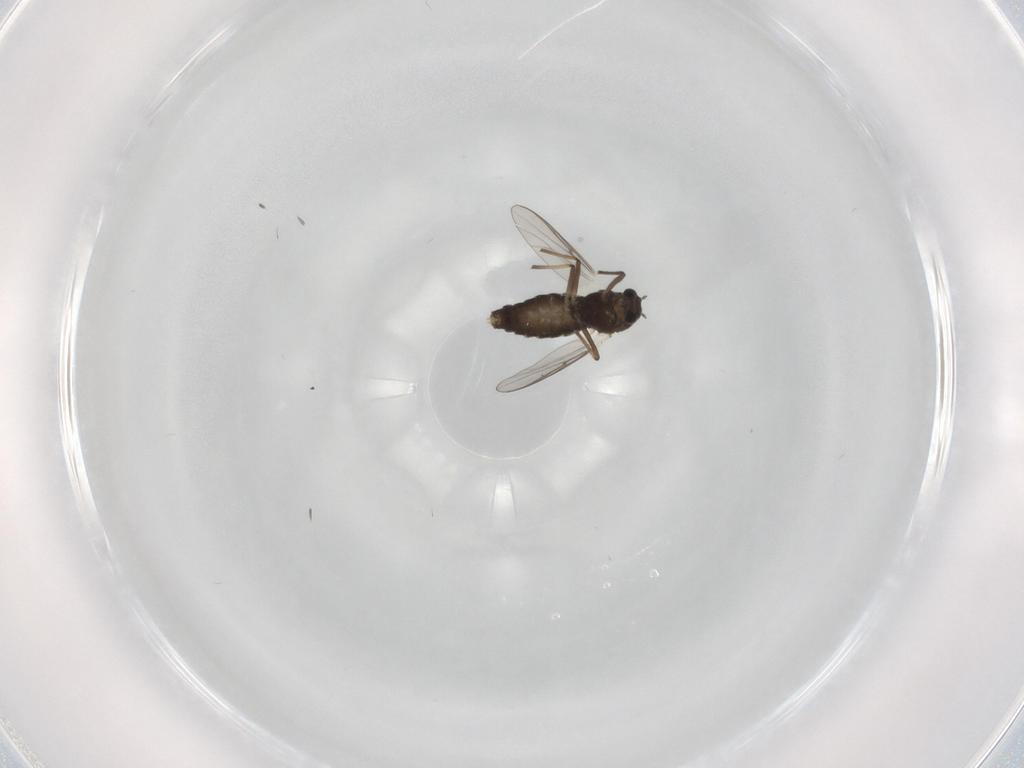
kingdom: Animalia
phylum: Arthropoda
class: Insecta
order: Diptera
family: Chironomidae
